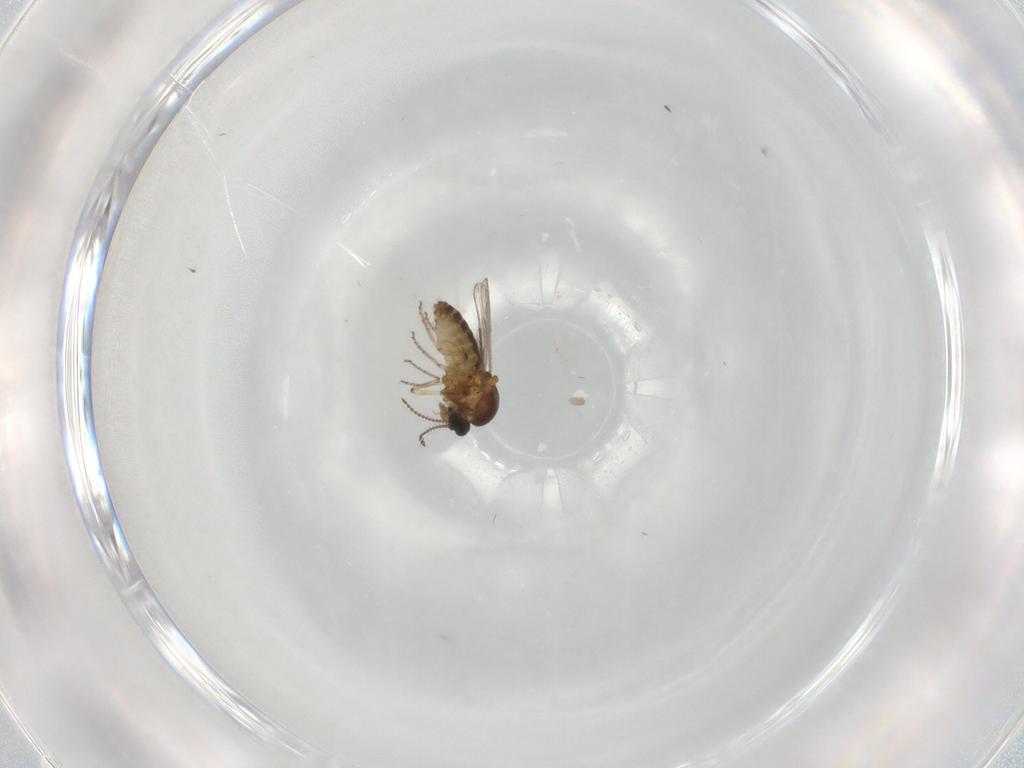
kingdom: Animalia
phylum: Arthropoda
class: Insecta
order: Diptera
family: Ceratopogonidae
